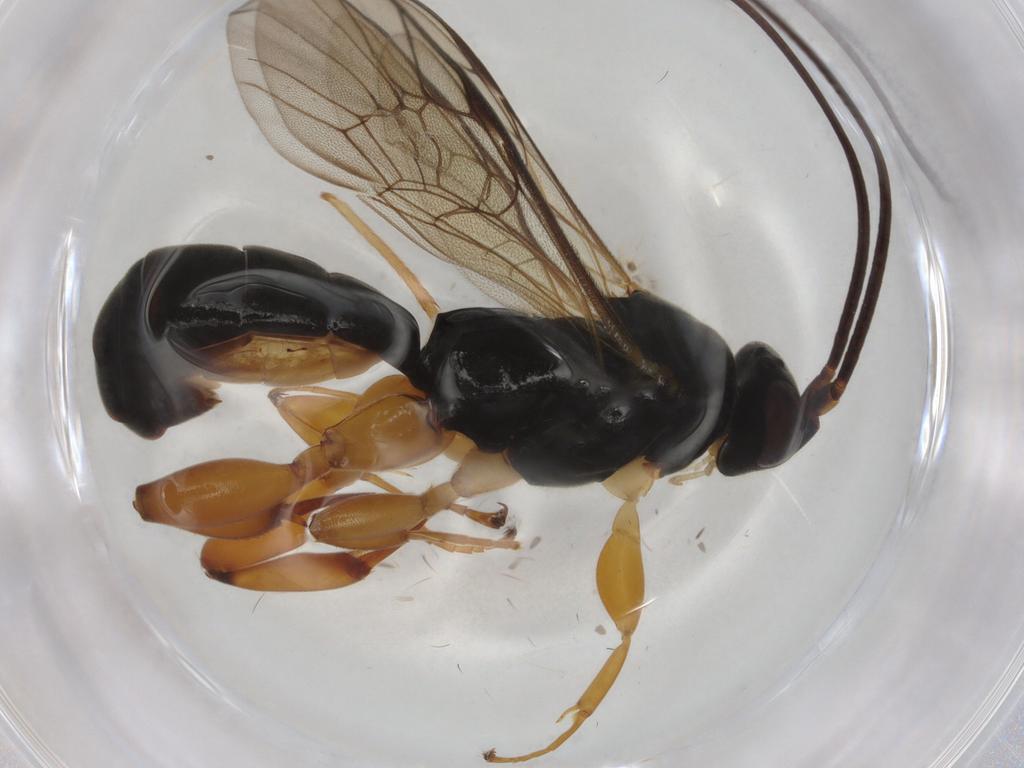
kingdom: Animalia
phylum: Arthropoda
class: Insecta
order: Hymenoptera
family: Ichneumonidae
